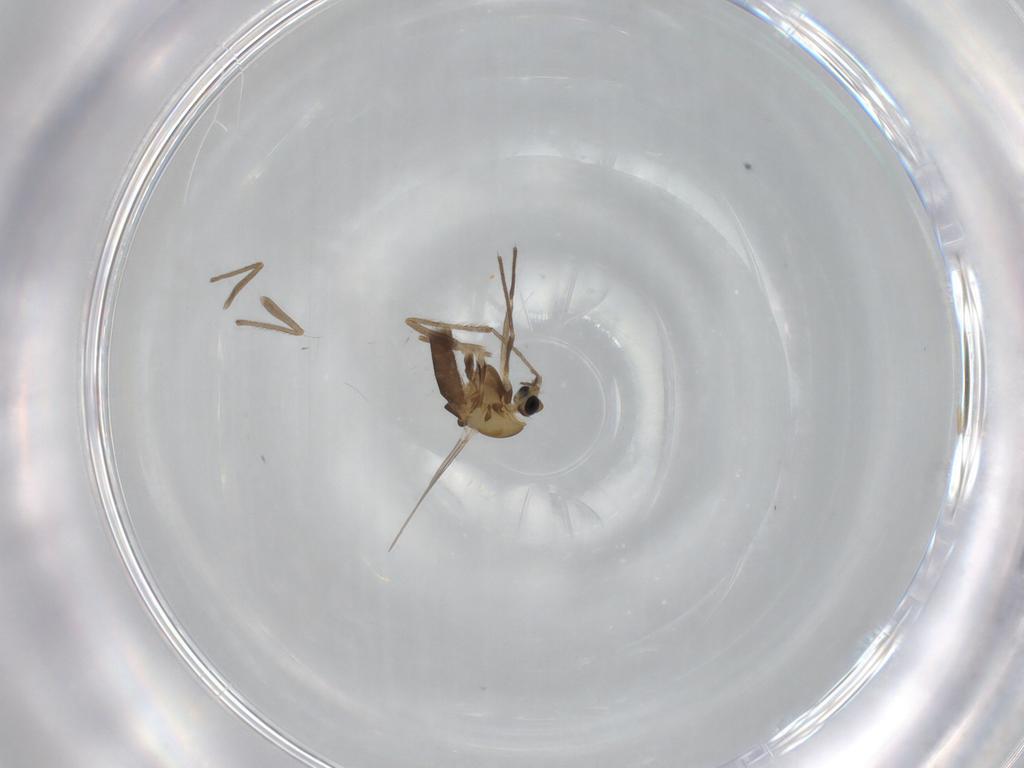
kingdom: Animalia
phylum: Arthropoda
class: Insecta
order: Diptera
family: Chironomidae
